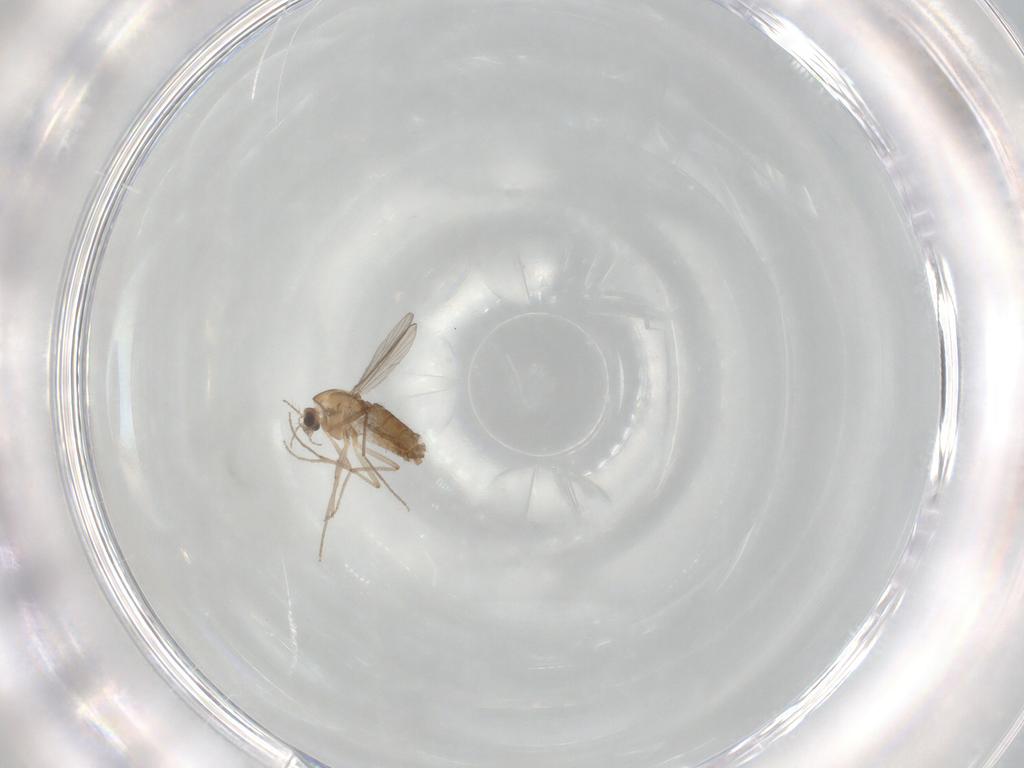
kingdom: Animalia
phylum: Arthropoda
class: Insecta
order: Diptera
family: Chironomidae
